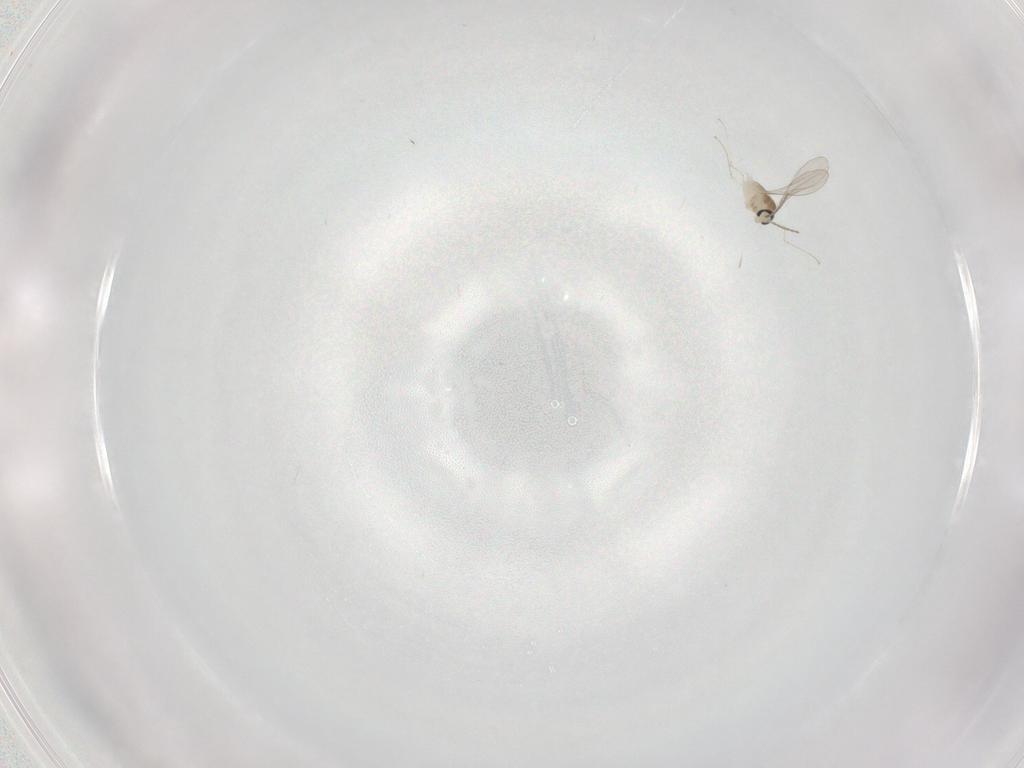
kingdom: Animalia
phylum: Arthropoda
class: Insecta
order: Diptera
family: Cecidomyiidae
